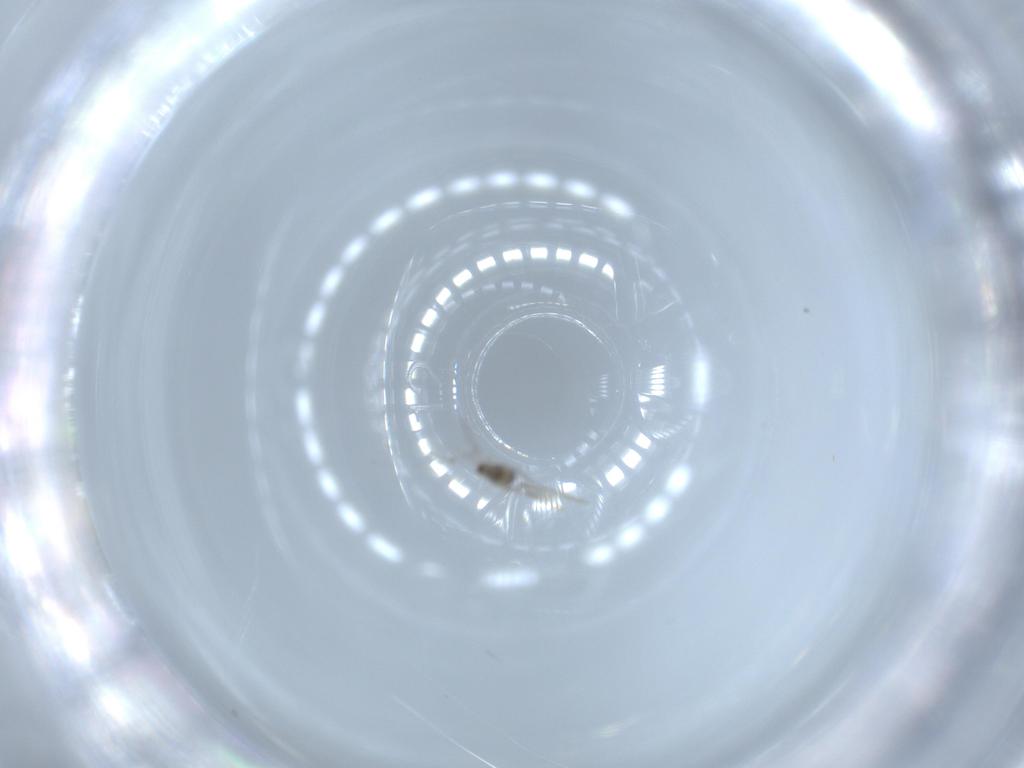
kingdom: Animalia
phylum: Arthropoda
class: Insecta
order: Diptera
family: Cecidomyiidae
